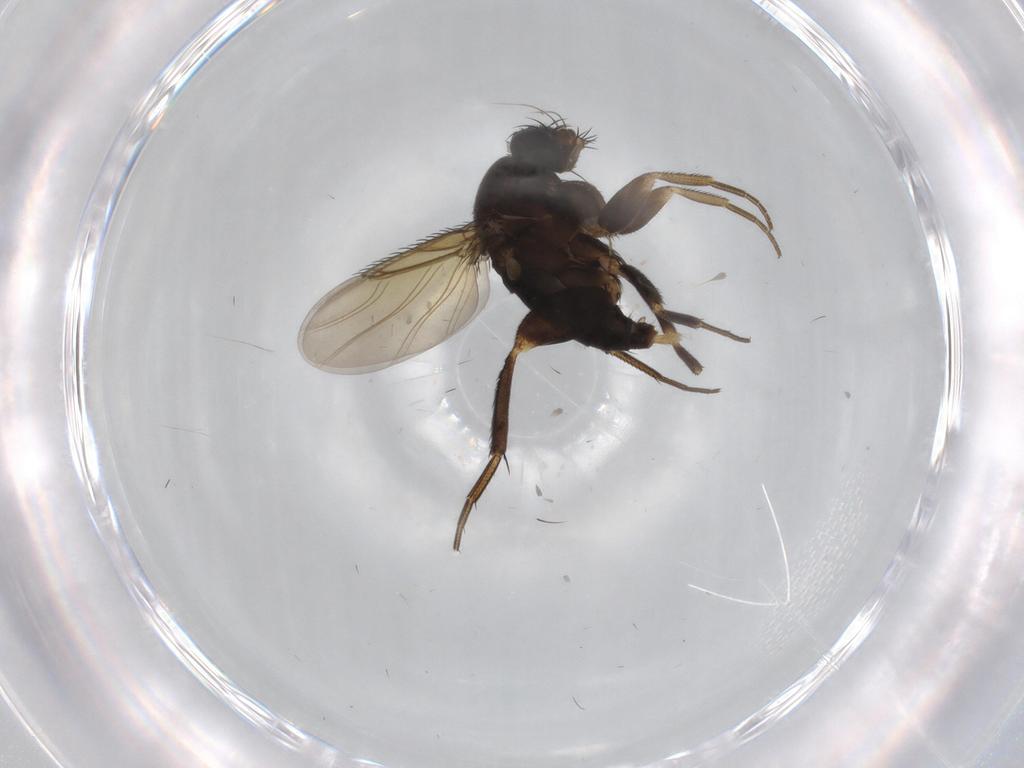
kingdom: Animalia
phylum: Arthropoda
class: Insecta
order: Diptera
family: Phoridae
